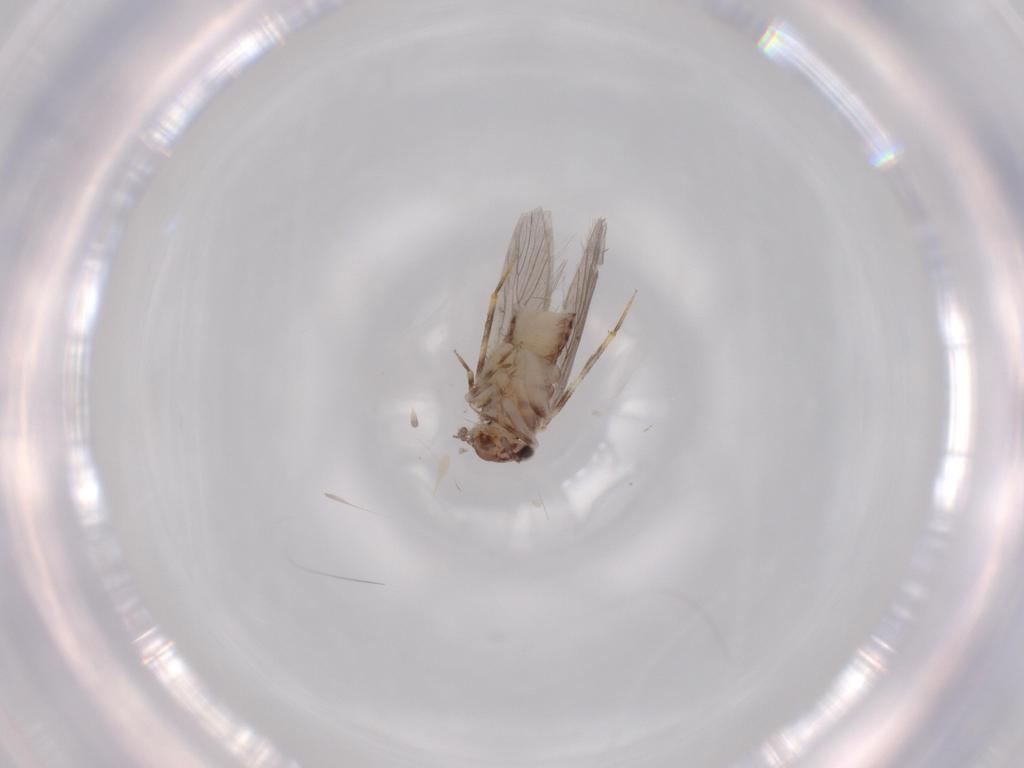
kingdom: Animalia
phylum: Arthropoda
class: Insecta
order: Psocodea
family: Lepidopsocidae
